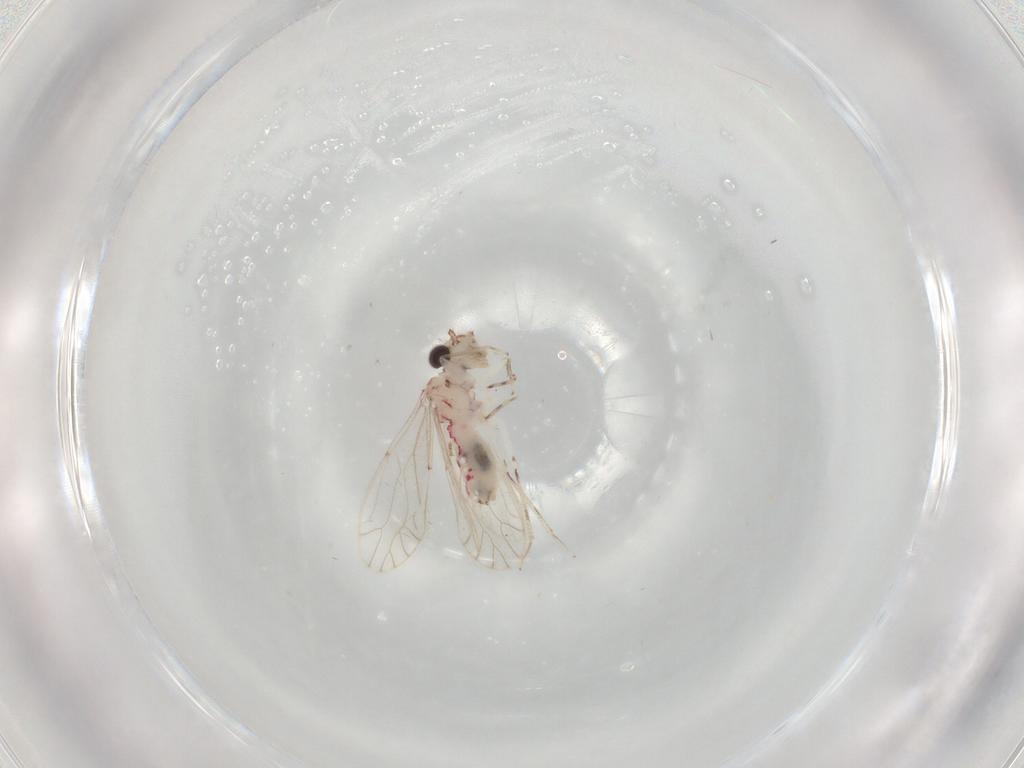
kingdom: Animalia
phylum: Arthropoda
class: Insecta
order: Psocodea
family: Caeciliusidae
